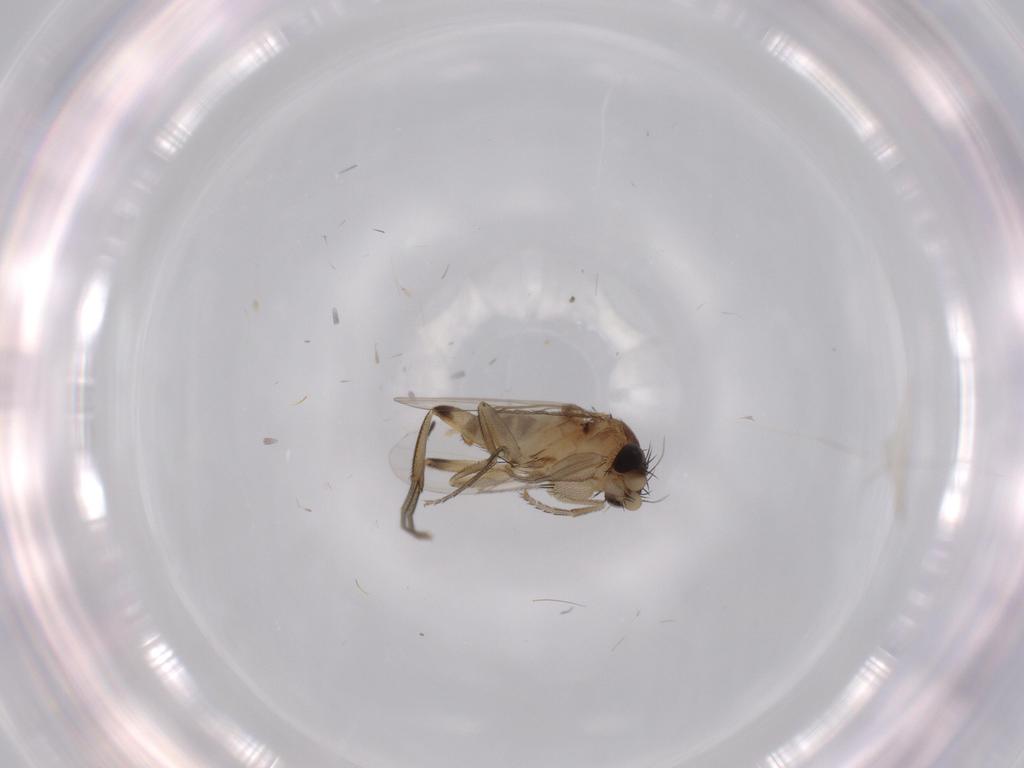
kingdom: Animalia
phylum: Arthropoda
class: Insecta
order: Diptera
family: Phoridae
